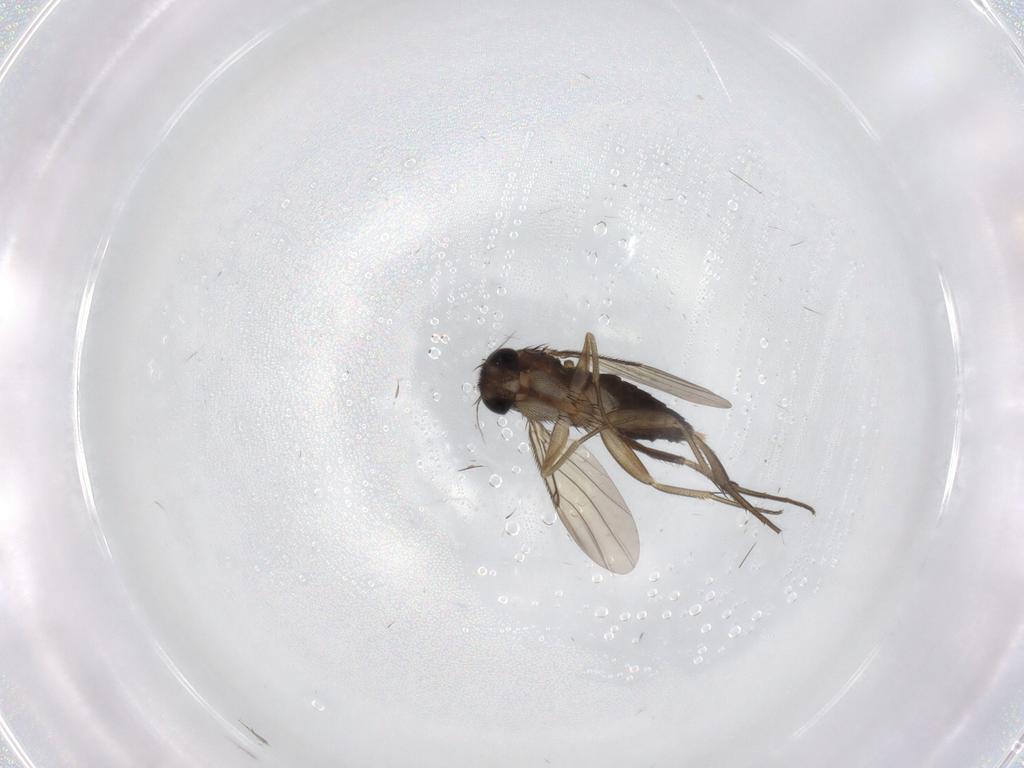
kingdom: Animalia
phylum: Arthropoda
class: Insecta
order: Diptera
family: Phoridae
